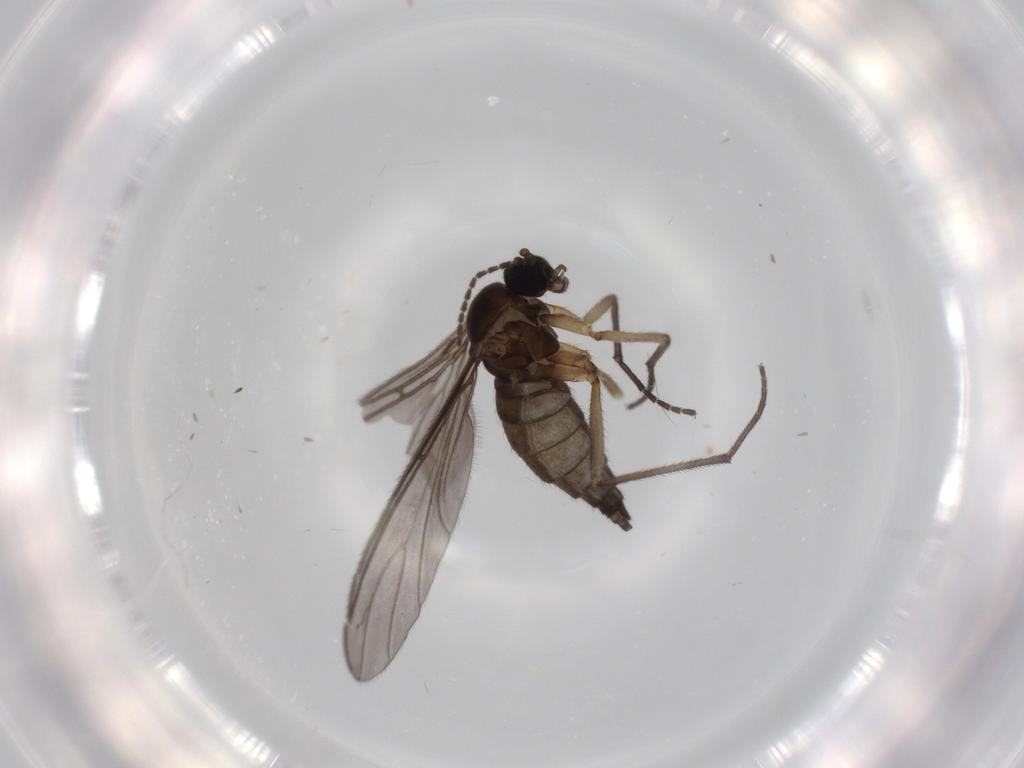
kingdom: Animalia
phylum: Arthropoda
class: Insecta
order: Diptera
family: Sciaridae
